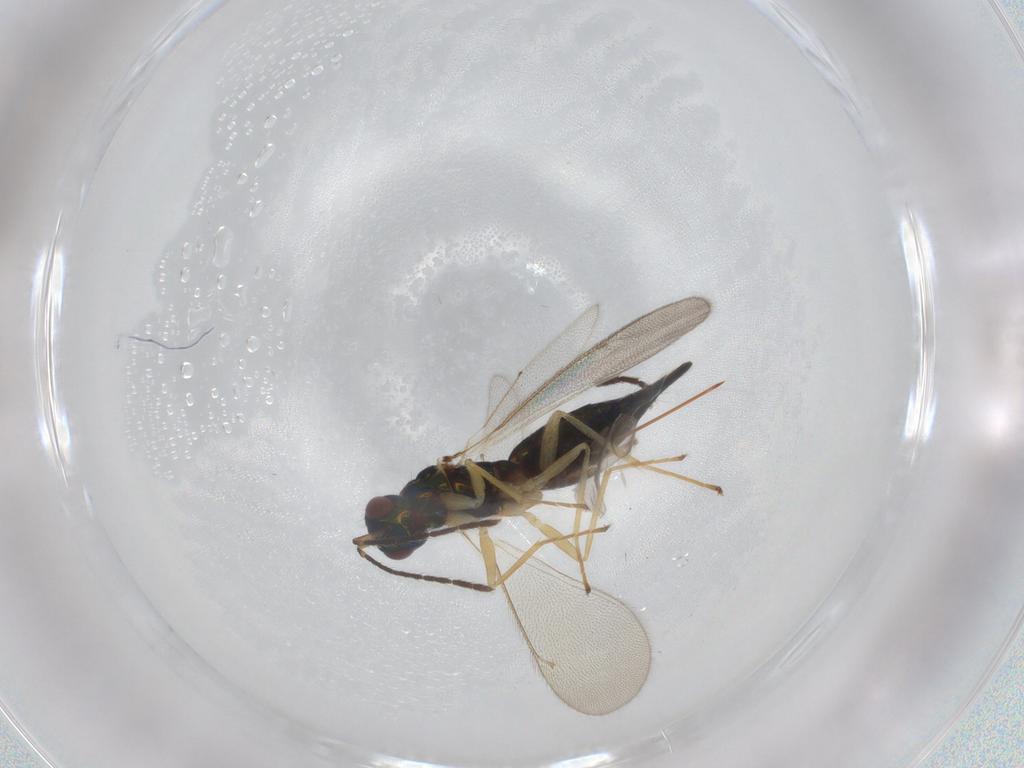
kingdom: Animalia
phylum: Arthropoda
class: Insecta
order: Hymenoptera
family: Eulophidae
